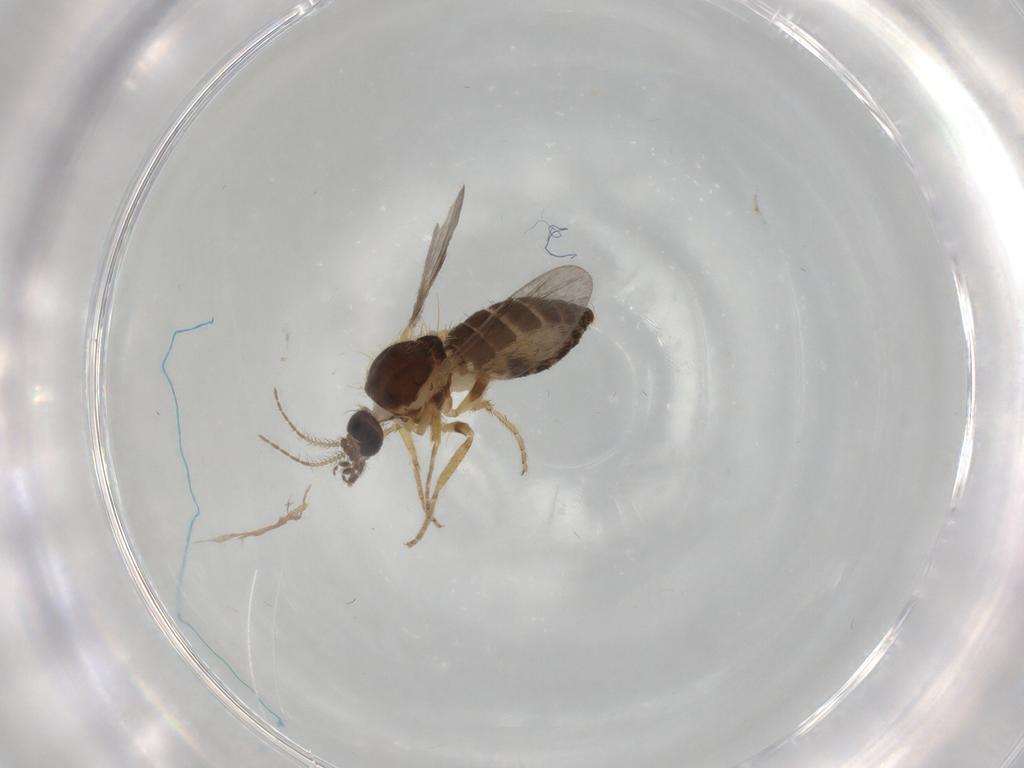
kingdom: Animalia
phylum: Arthropoda
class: Insecta
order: Diptera
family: Ceratopogonidae
